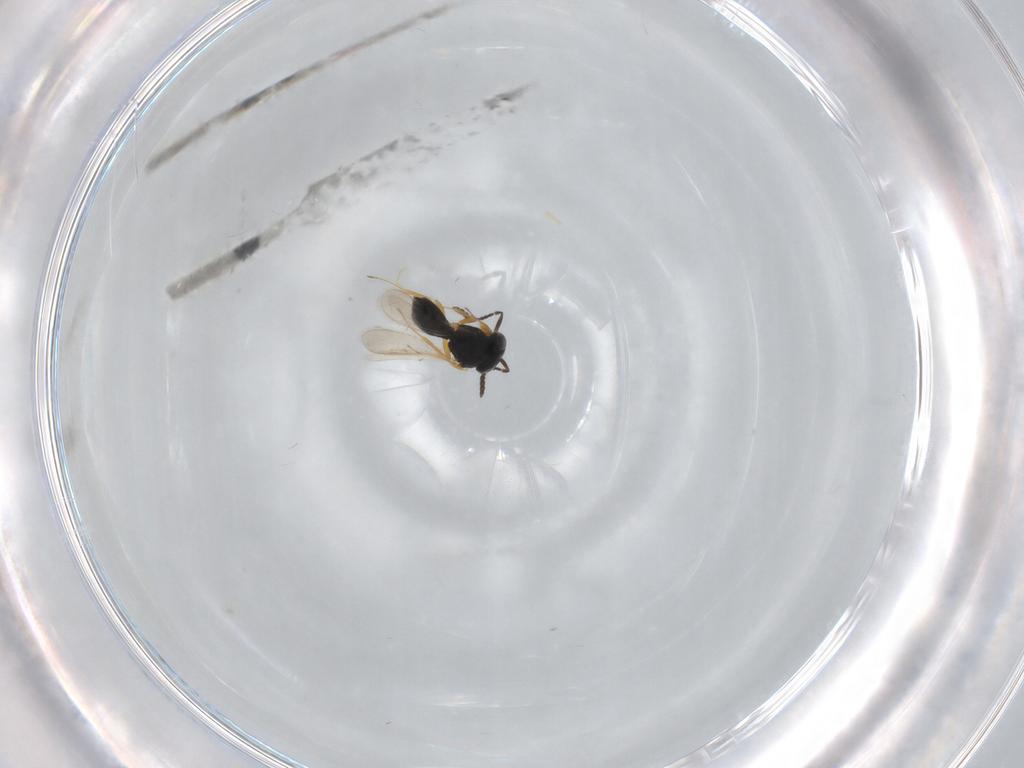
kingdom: Animalia
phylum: Arthropoda
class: Insecta
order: Hymenoptera
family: Scelionidae
